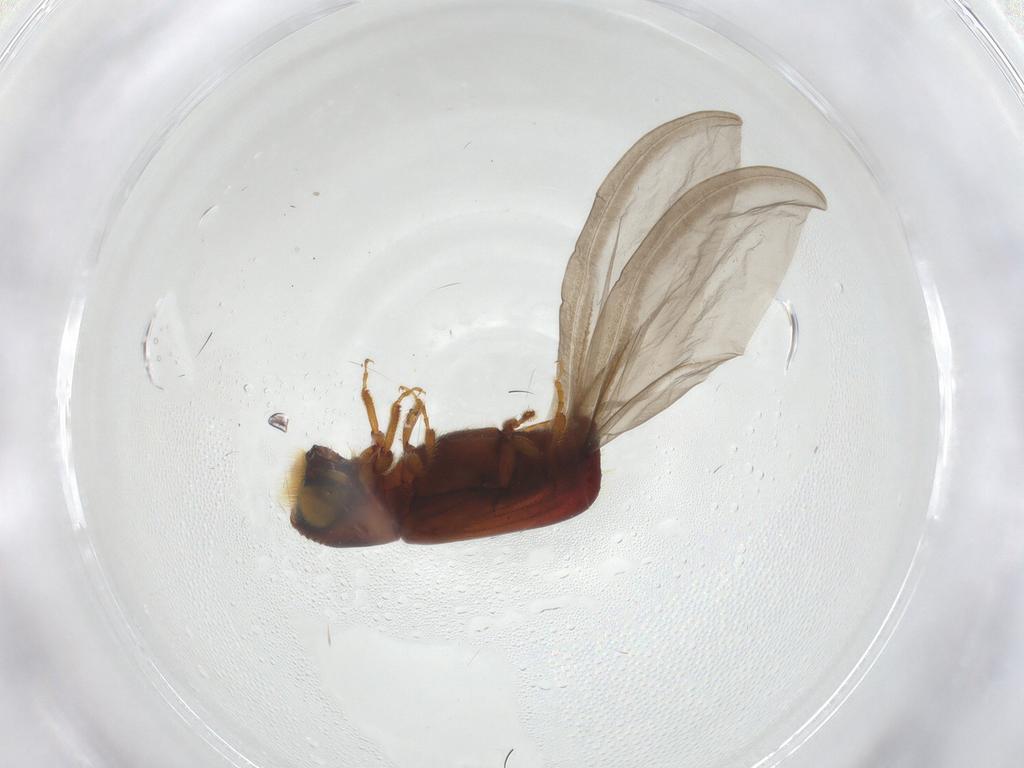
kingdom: Animalia
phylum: Arthropoda
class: Insecta
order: Coleoptera
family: Curculionidae
